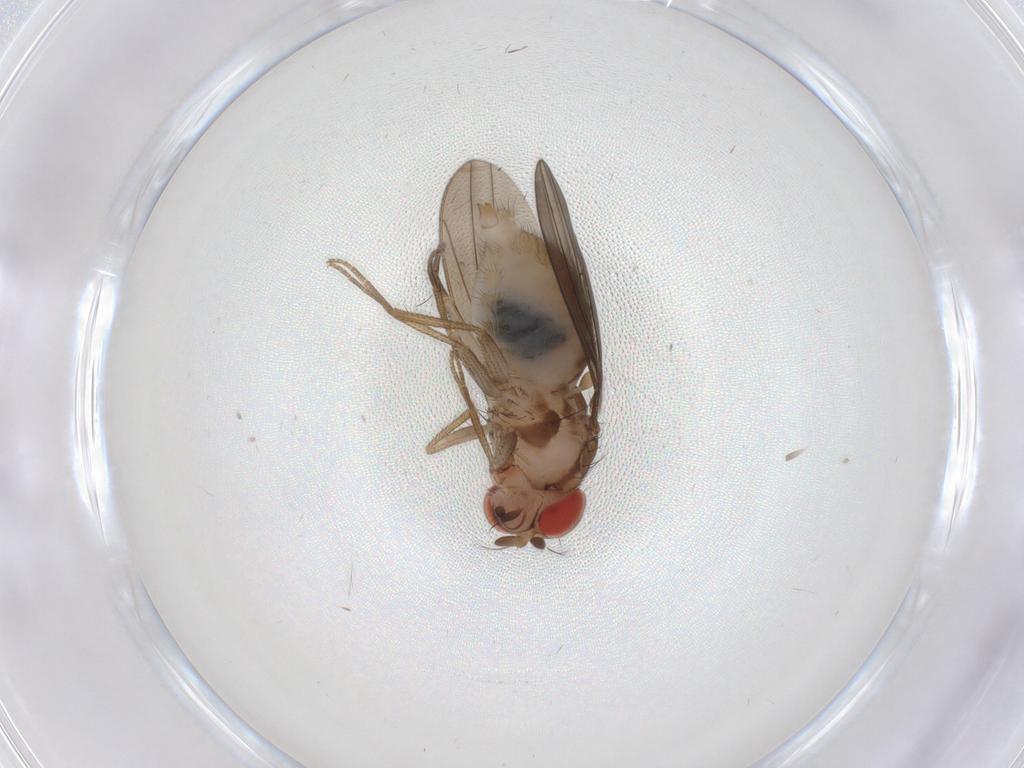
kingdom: Animalia
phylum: Arthropoda
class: Insecta
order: Diptera
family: Drosophilidae
